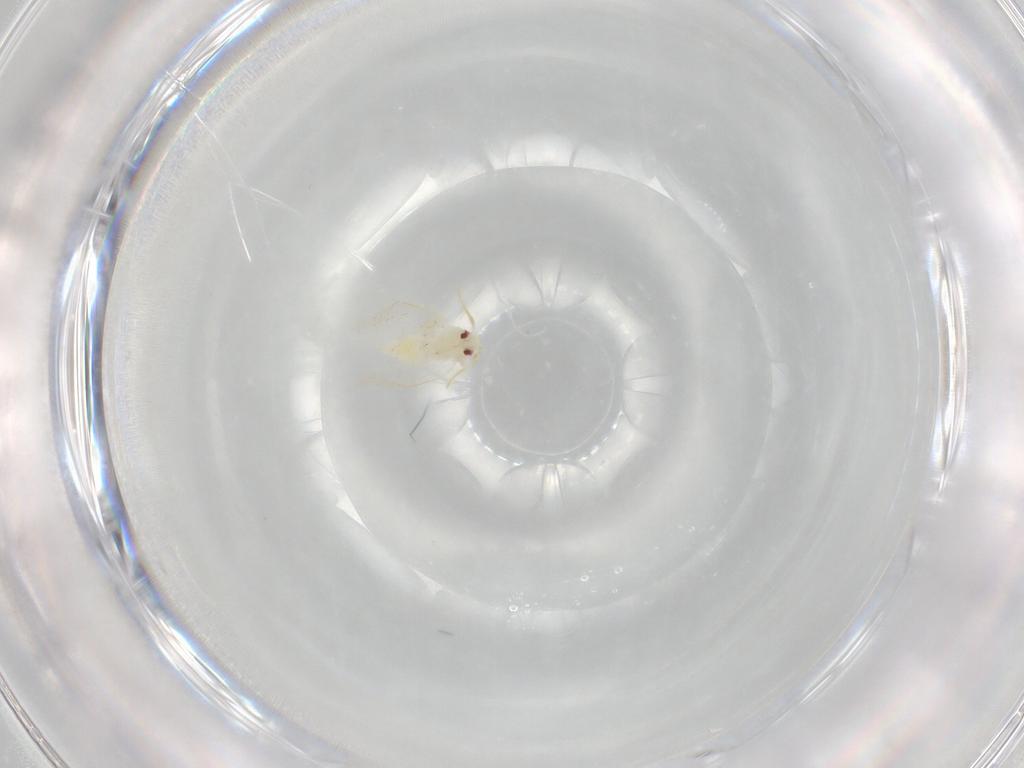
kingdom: Animalia
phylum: Arthropoda
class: Insecta
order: Hemiptera
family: Aleyrodidae
